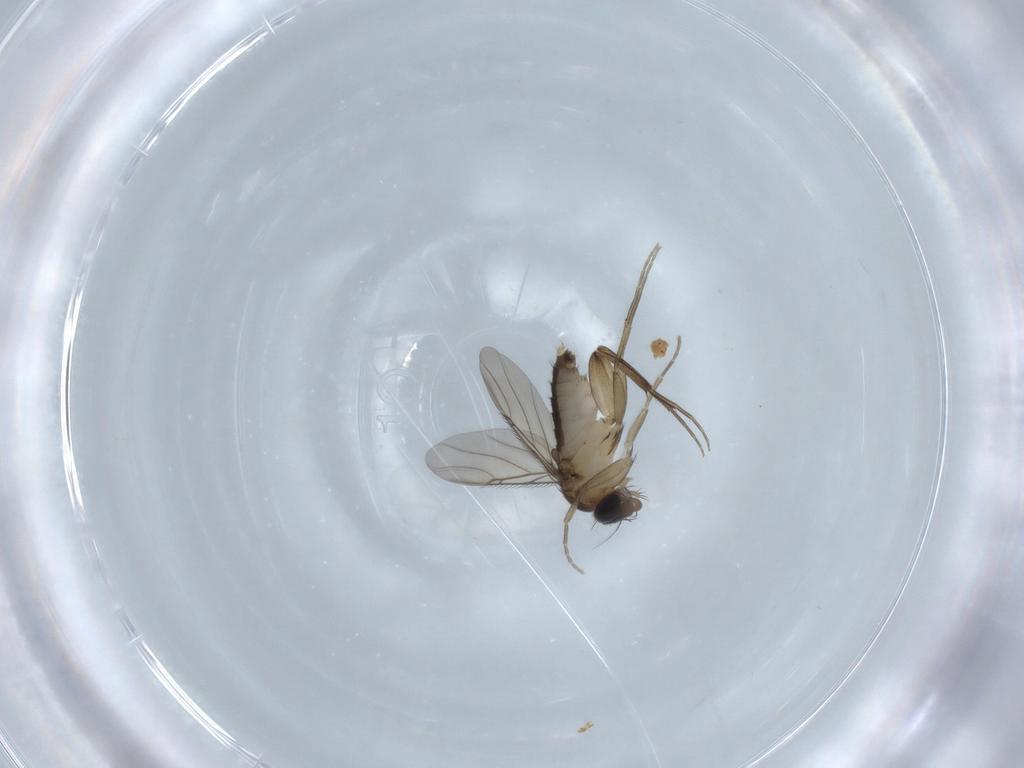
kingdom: Animalia
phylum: Arthropoda
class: Insecta
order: Diptera
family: Phoridae
